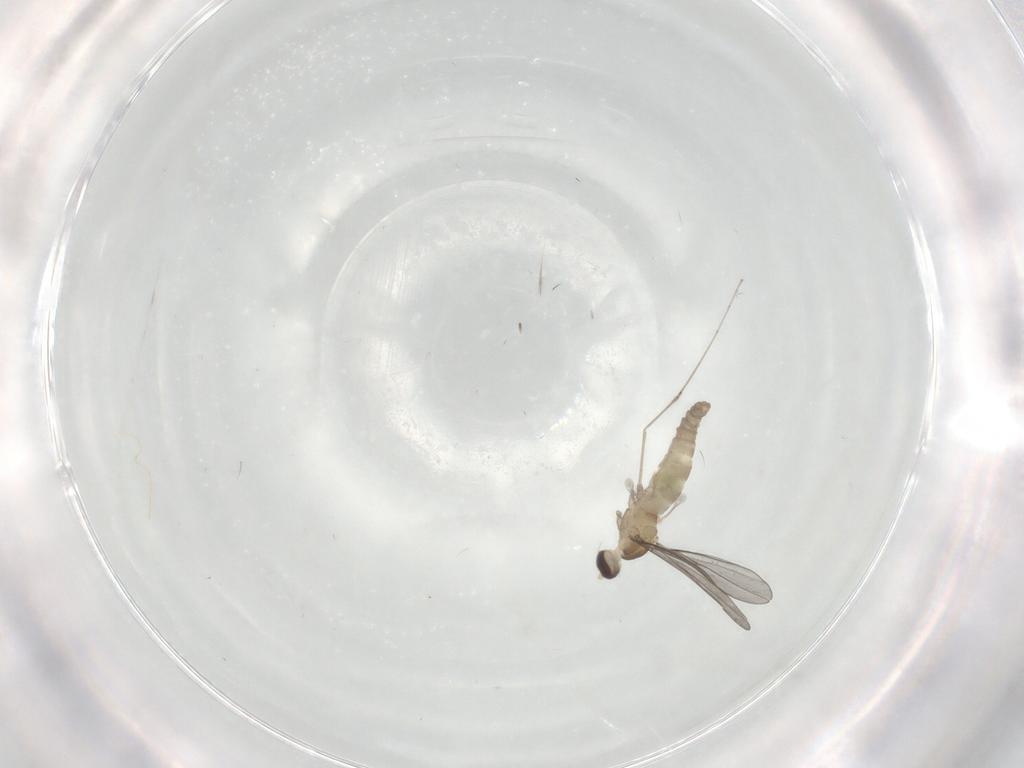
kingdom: Animalia
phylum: Arthropoda
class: Insecta
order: Diptera
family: Cecidomyiidae
